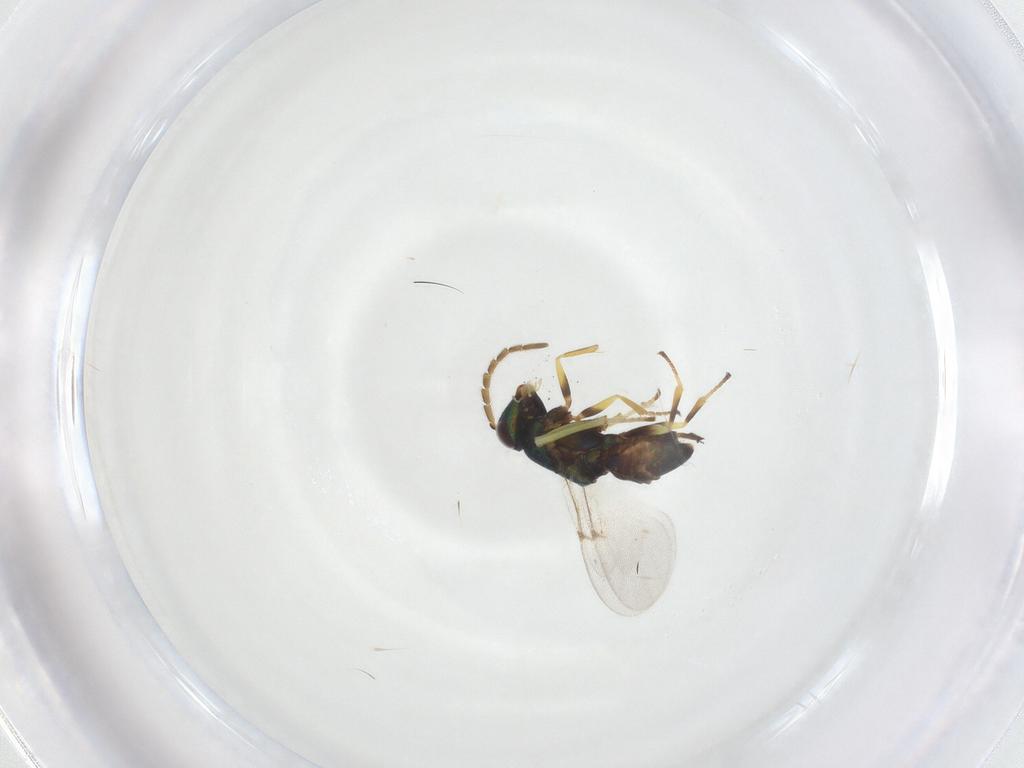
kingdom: Animalia
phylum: Arthropoda
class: Insecta
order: Hymenoptera
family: Encyrtidae
